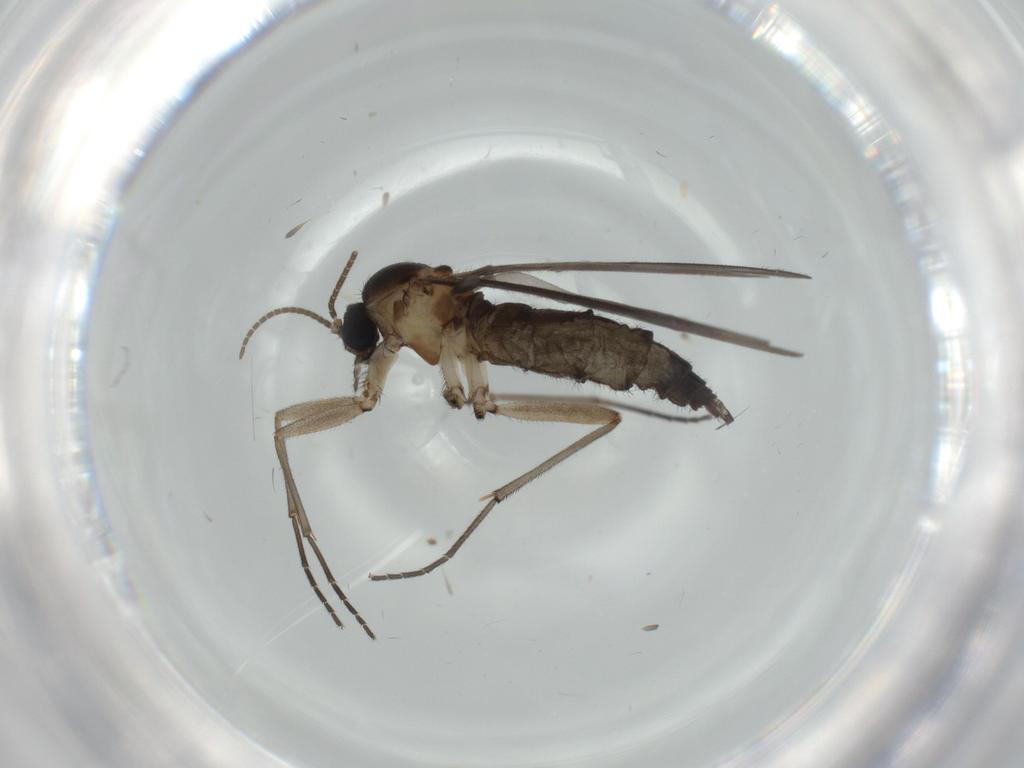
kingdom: Animalia
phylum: Arthropoda
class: Insecta
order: Diptera
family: Sciaridae
